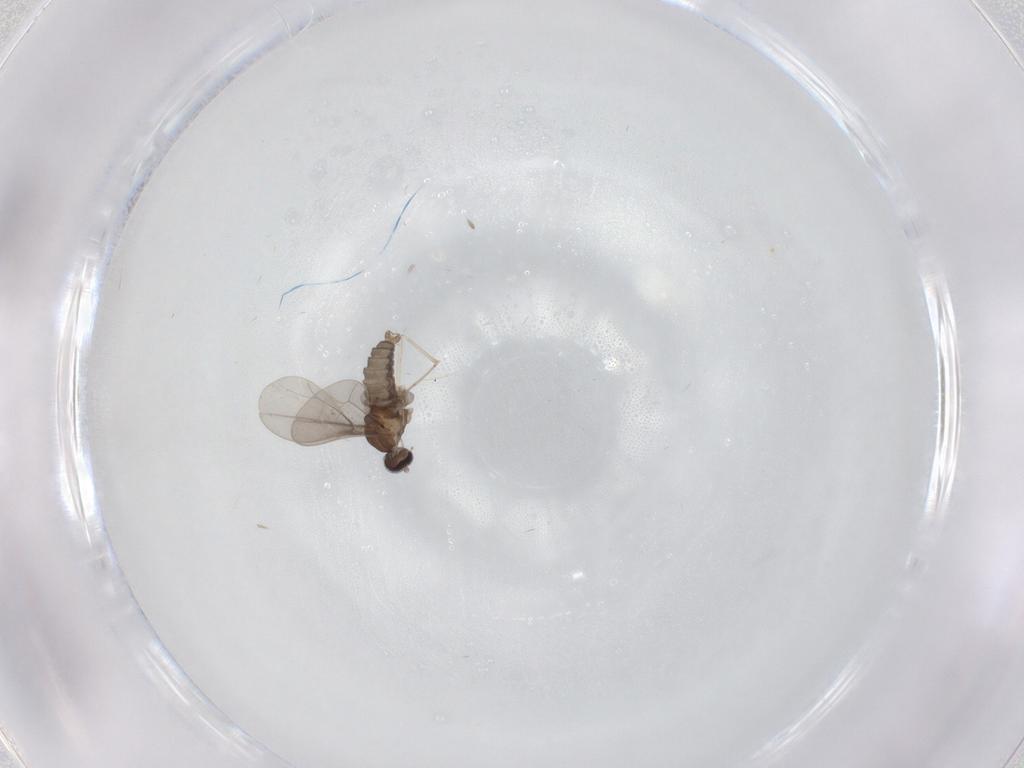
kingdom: Animalia
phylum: Arthropoda
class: Insecta
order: Diptera
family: Cecidomyiidae
